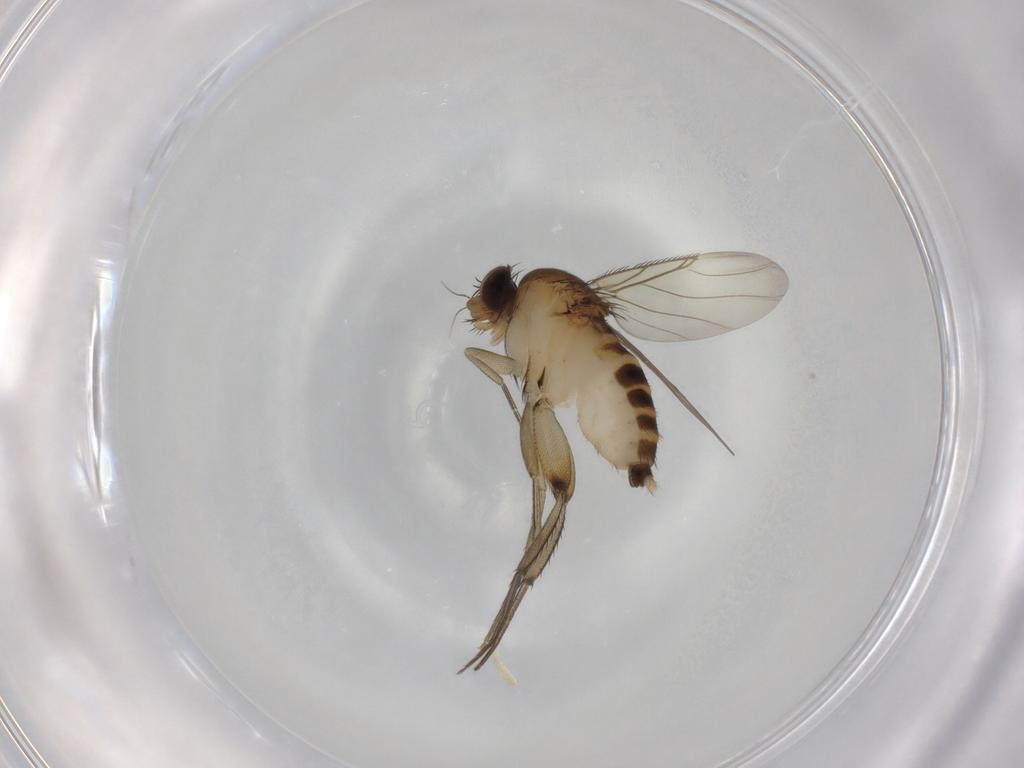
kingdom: Animalia
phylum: Arthropoda
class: Insecta
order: Diptera
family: Phoridae
